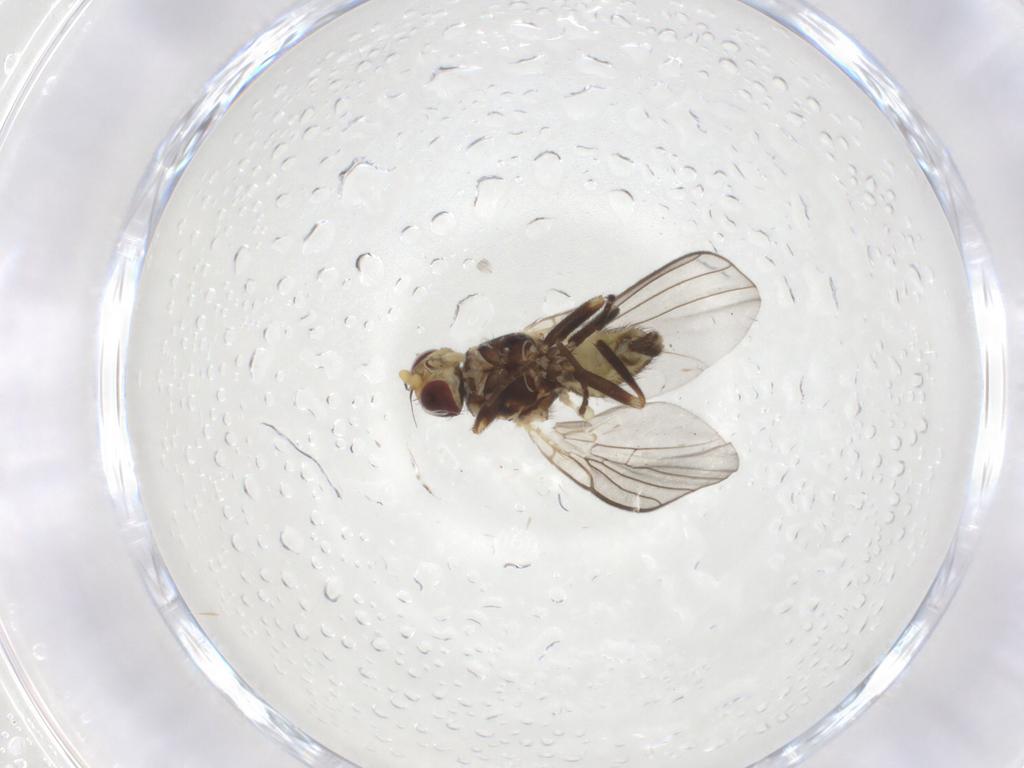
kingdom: Animalia
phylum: Arthropoda
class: Insecta
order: Diptera
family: Agromyzidae
